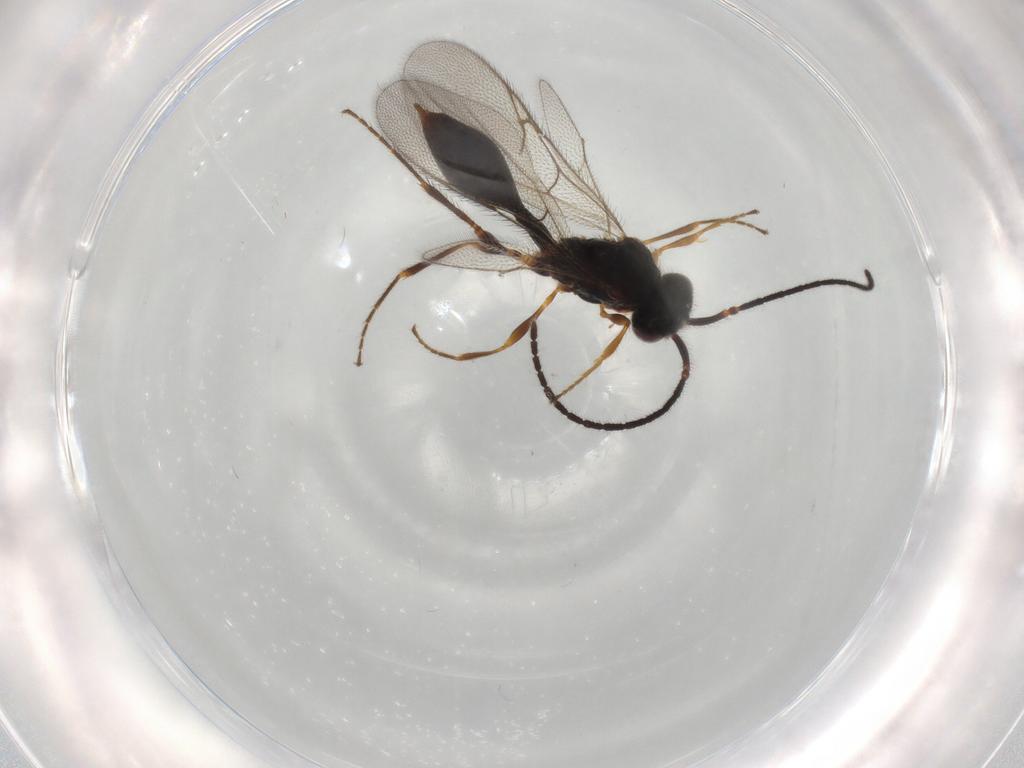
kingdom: Animalia
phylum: Arthropoda
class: Insecta
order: Hymenoptera
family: Diapriidae
